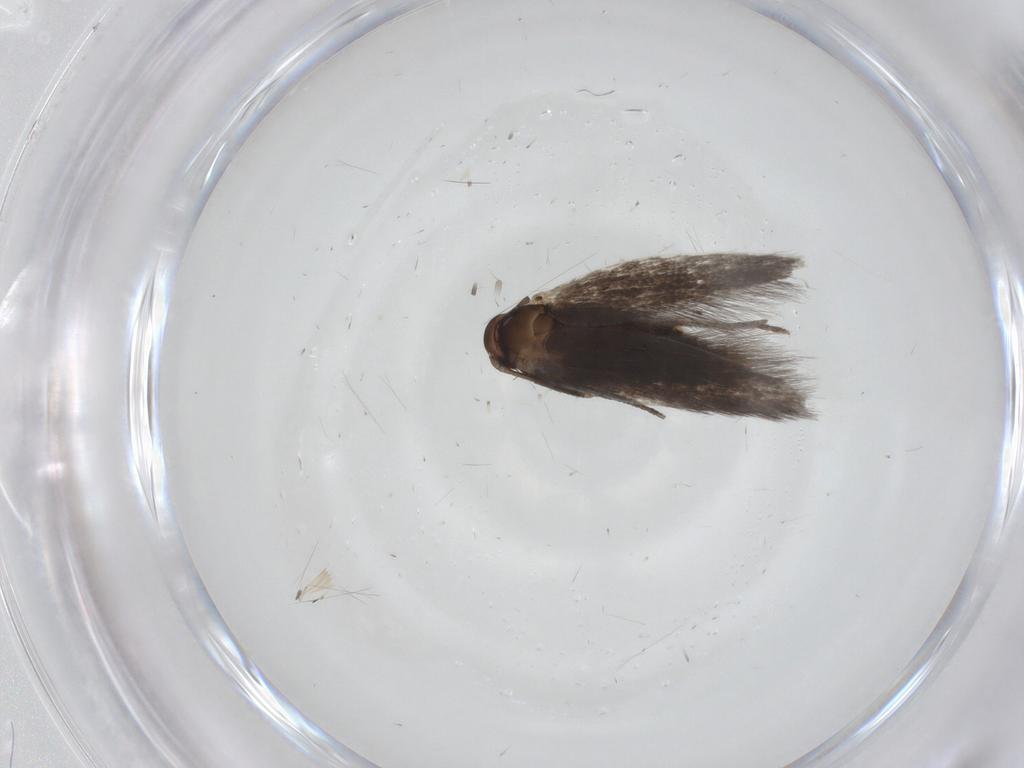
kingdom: Animalia
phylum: Arthropoda
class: Insecta
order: Lepidoptera
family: Elachistidae
